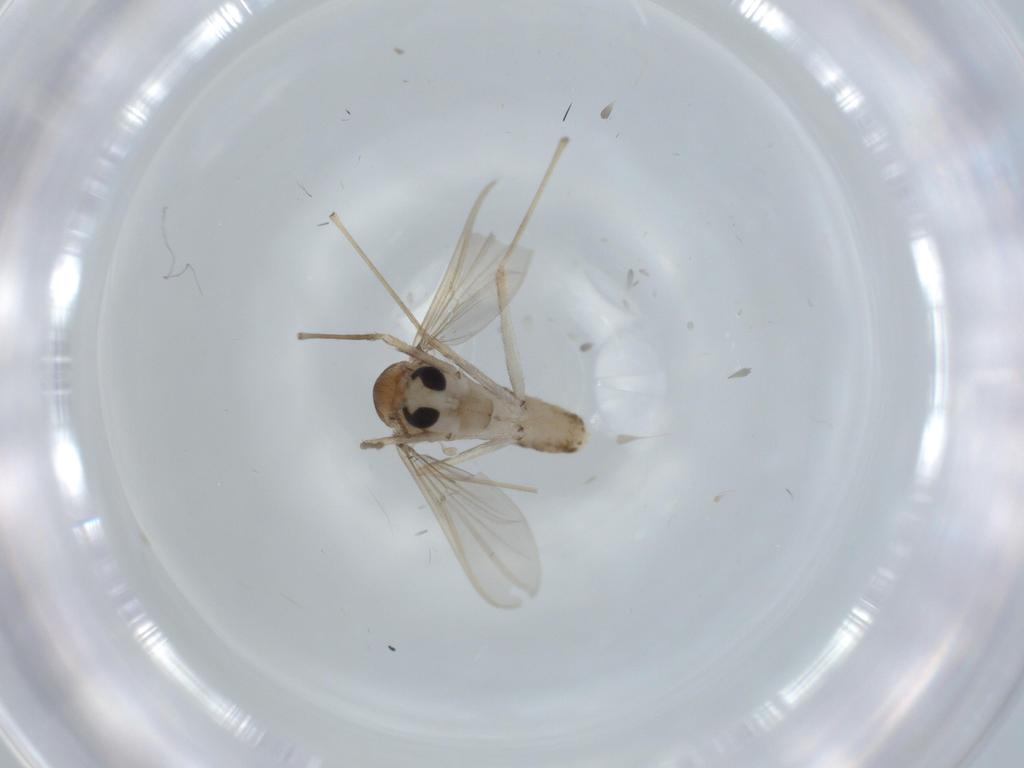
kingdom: Animalia
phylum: Arthropoda
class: Insecta
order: Diptera
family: Chironomidae
